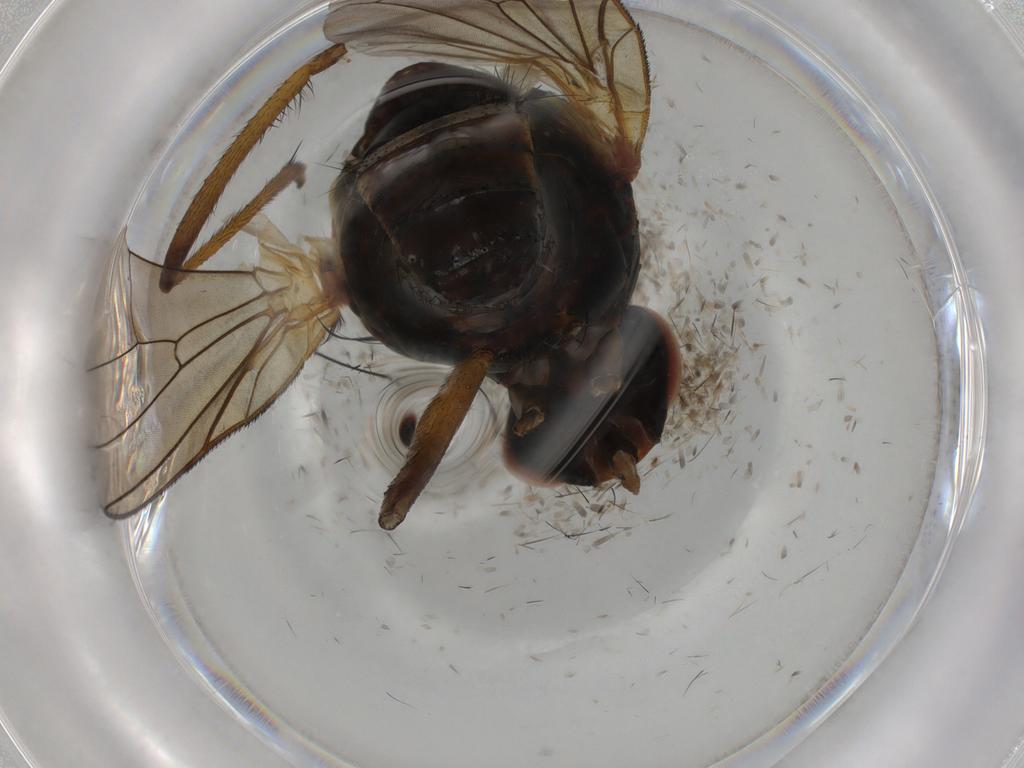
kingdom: Animalia
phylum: Arthropoda
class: Insecta
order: Diptera
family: Anthomyiidae
